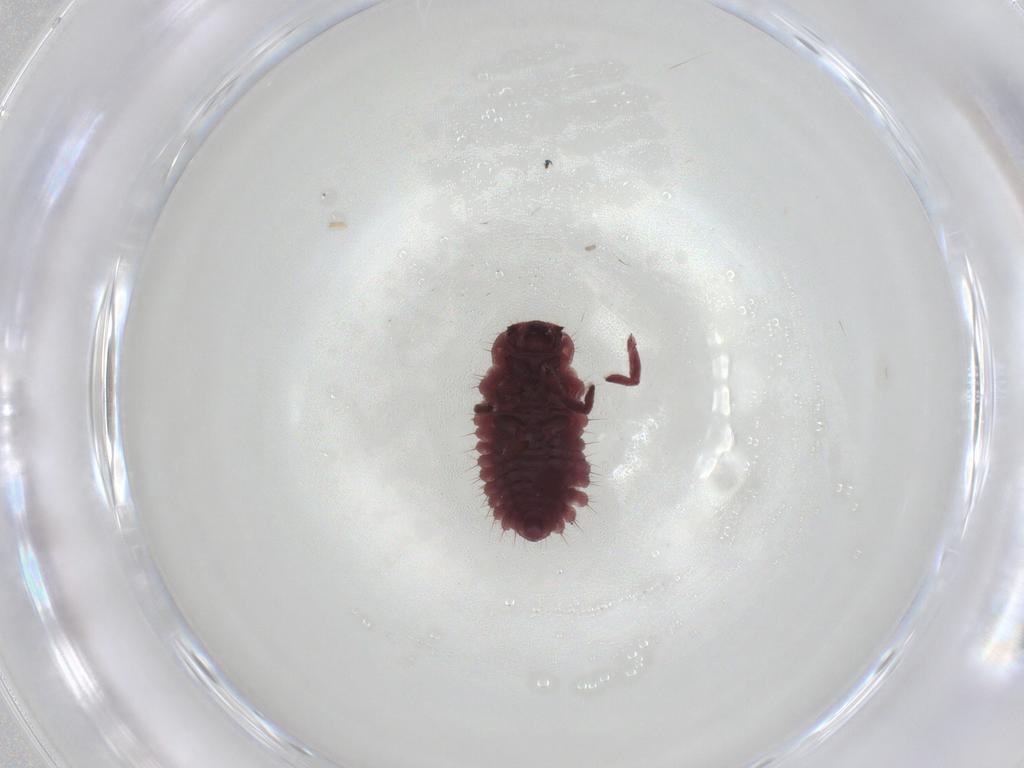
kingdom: Animalia
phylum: Arthropoda
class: Insecta
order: Coleoptera
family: Coccinellidae
